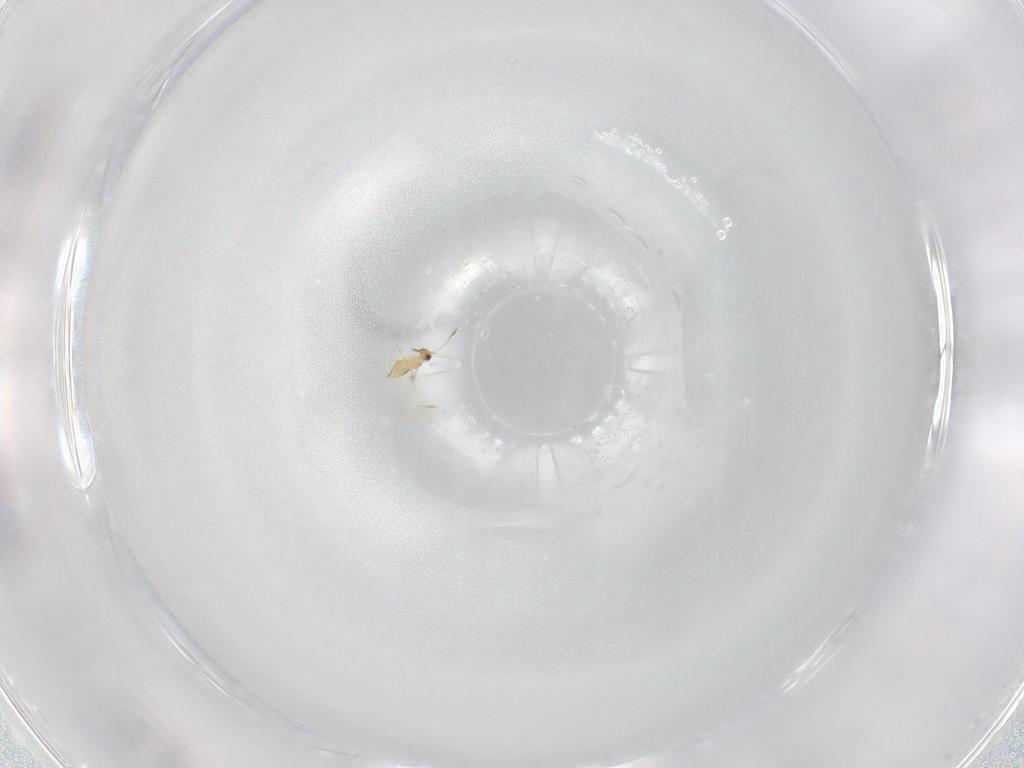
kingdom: Animalia
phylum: Arthropoda
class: Insecta
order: Hymenoptera
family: Mymaridae
